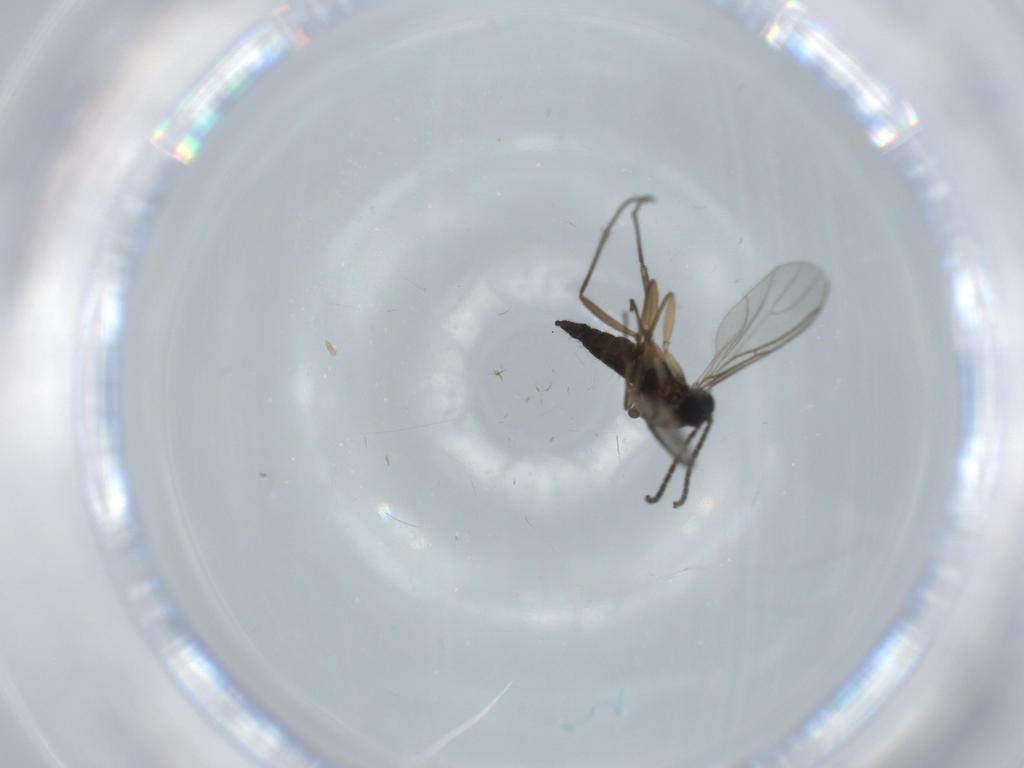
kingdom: Animalia
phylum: Arthropoda
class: Insecta
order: Diptera
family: Sciaridae
